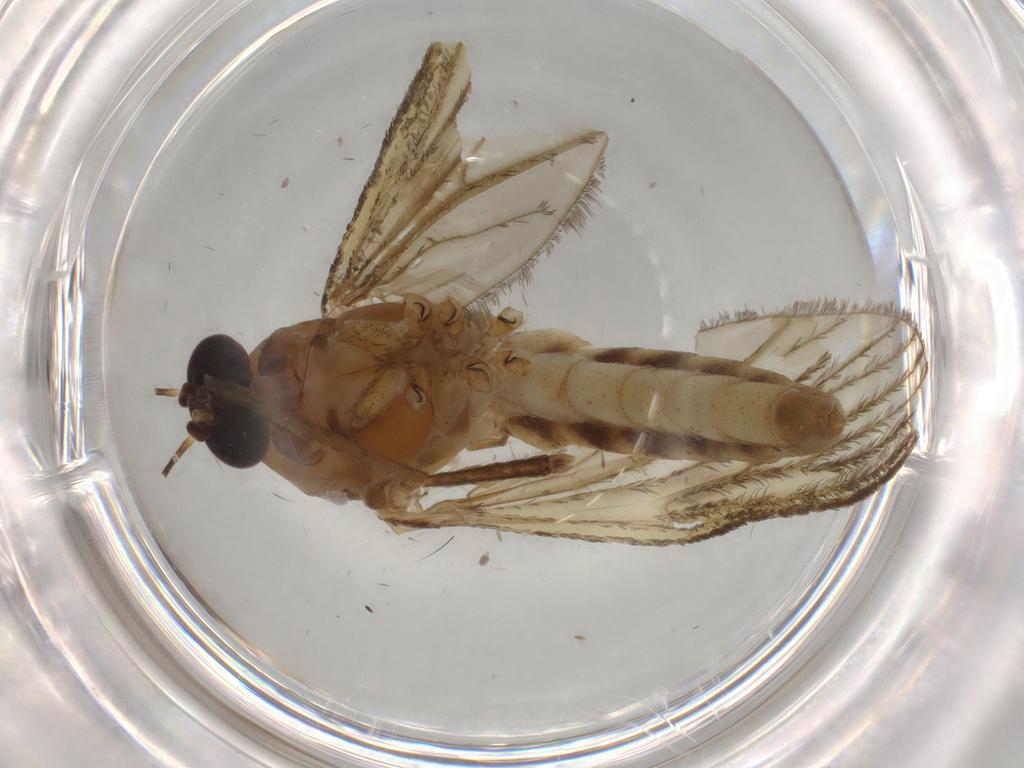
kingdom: Animalia
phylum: Arthropoda
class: Insecta
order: Diptera
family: Culicidae
